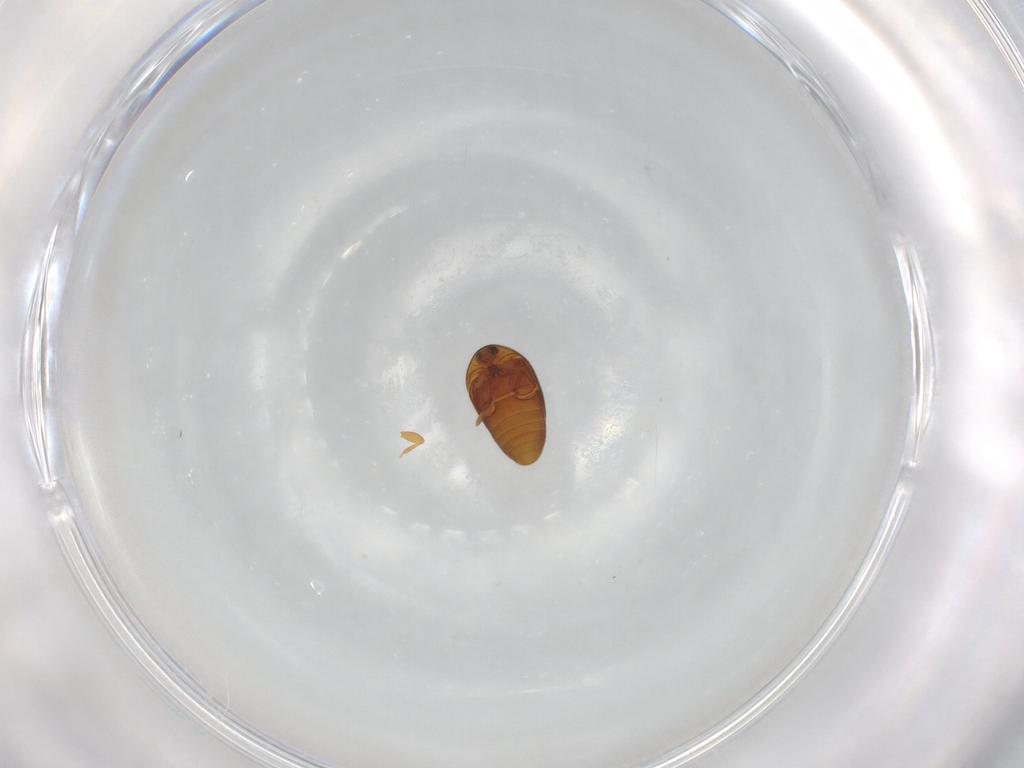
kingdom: Animalia
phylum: Arthropoda
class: Insecta
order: Coleoptera
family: Corylophidae
